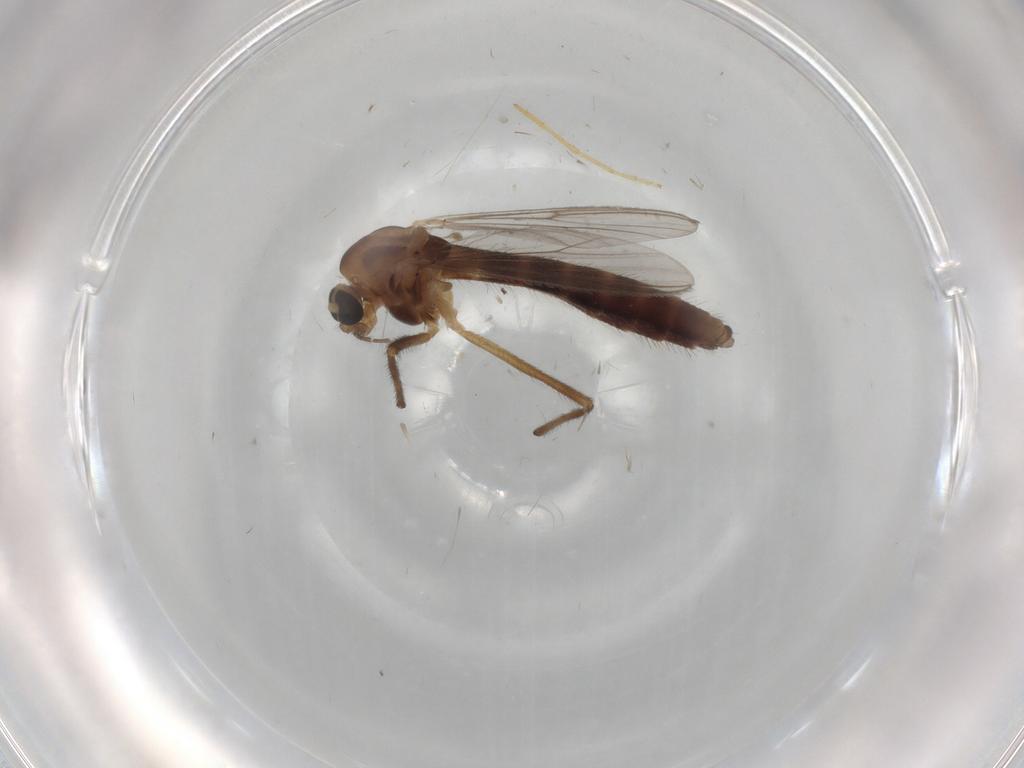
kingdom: Animalia
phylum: Arthropoda
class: Insecta
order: Diptera
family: Chironomidae
